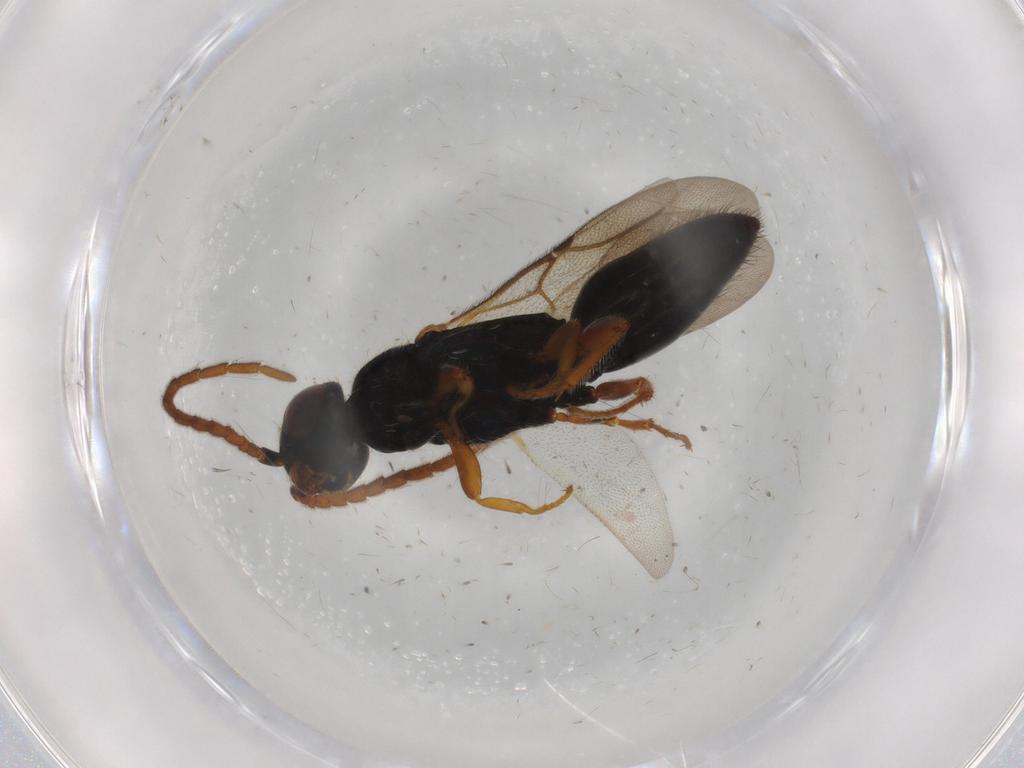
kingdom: Animalia
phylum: Arthropoda
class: Insecta
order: Hymenoptera
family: Bethylidae
